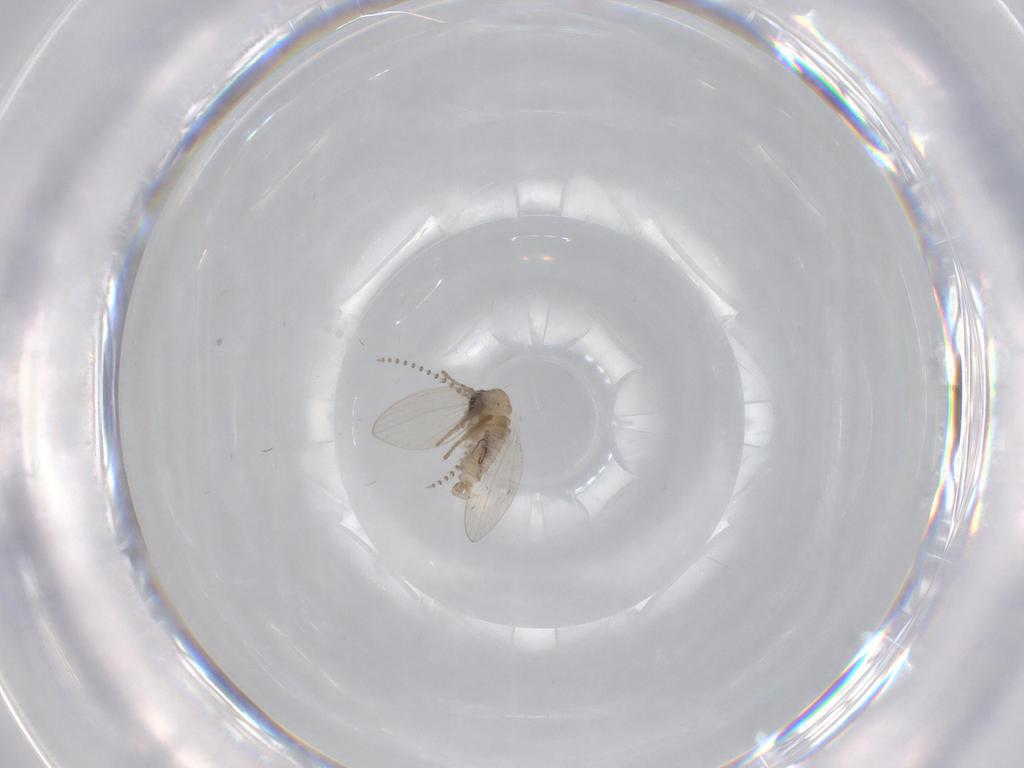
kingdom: Animalia
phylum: Arthropoda
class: Insecta
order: Diptera
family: Psychodidae
